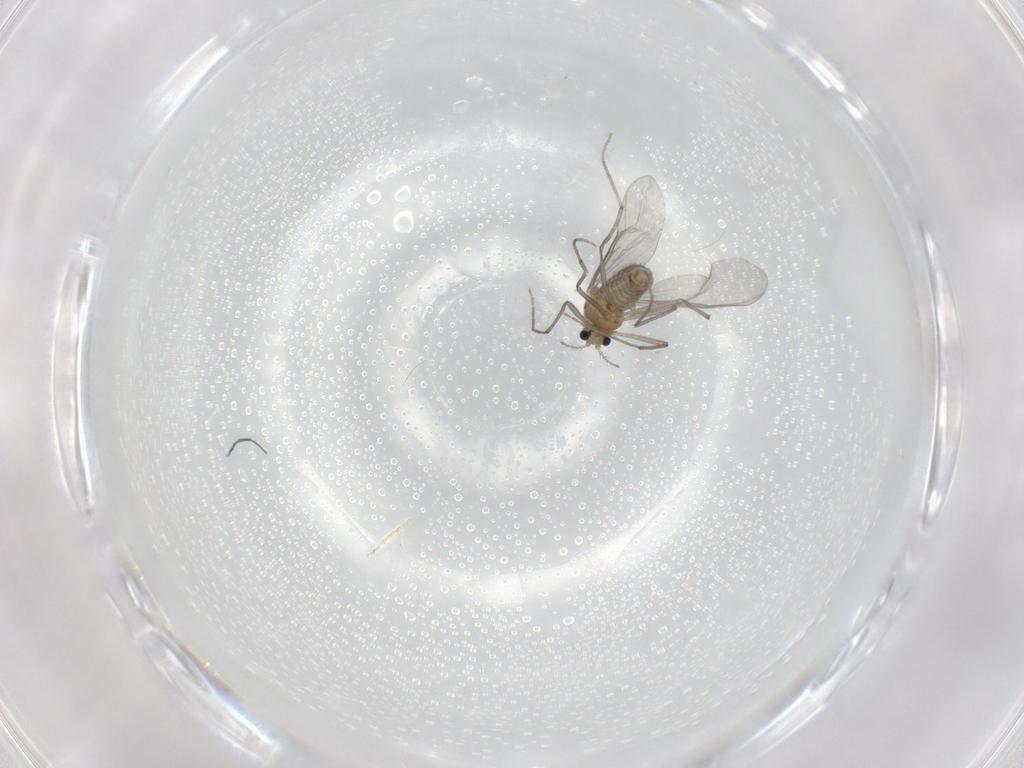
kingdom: Animalia
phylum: Arthropoda
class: Insecta
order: Diptera
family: Cecidomyiidae
